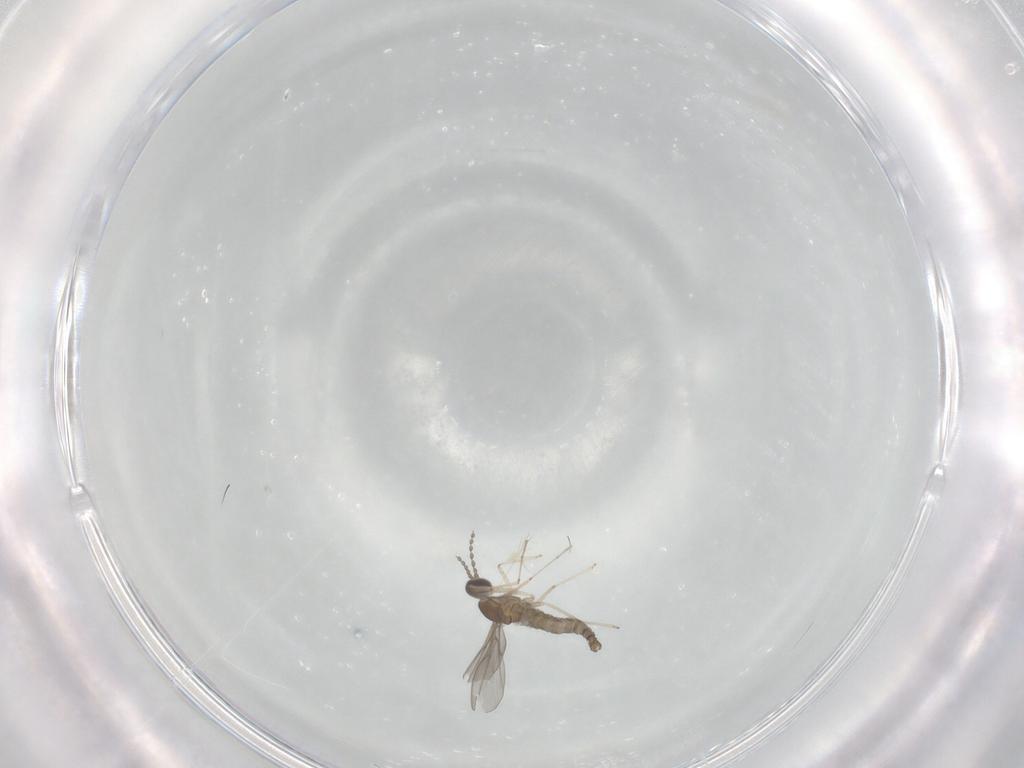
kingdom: Animalia
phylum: Arthropoda
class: Insecta
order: Diptera
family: Cecidomyiidae
